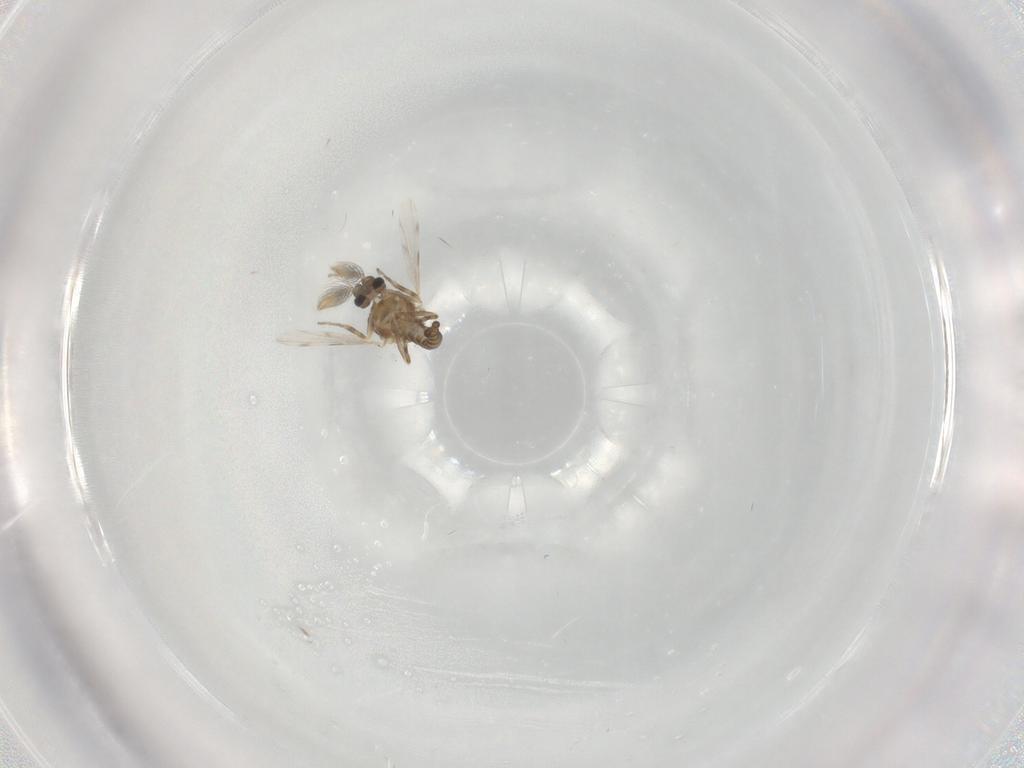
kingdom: Animalia
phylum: Arthropoda
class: Insecta
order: Diptera
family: Ceratopogonidae
